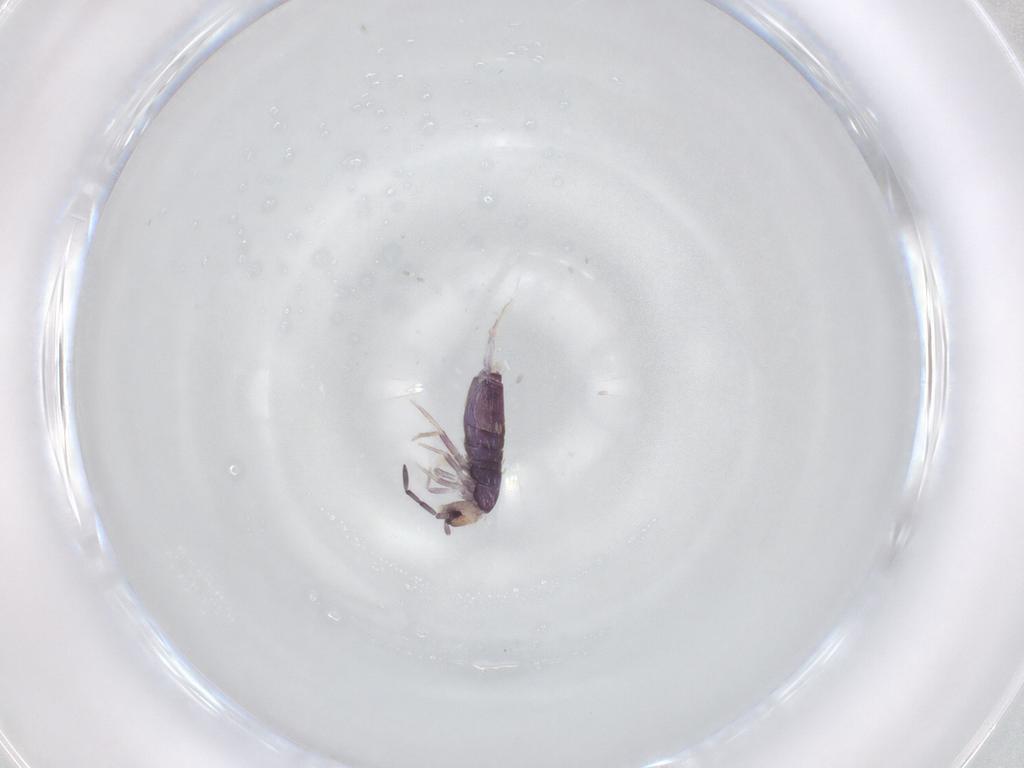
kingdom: Animalia
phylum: Arthropoda
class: Collembola
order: Entomobryomorpha
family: Entomobryidae
